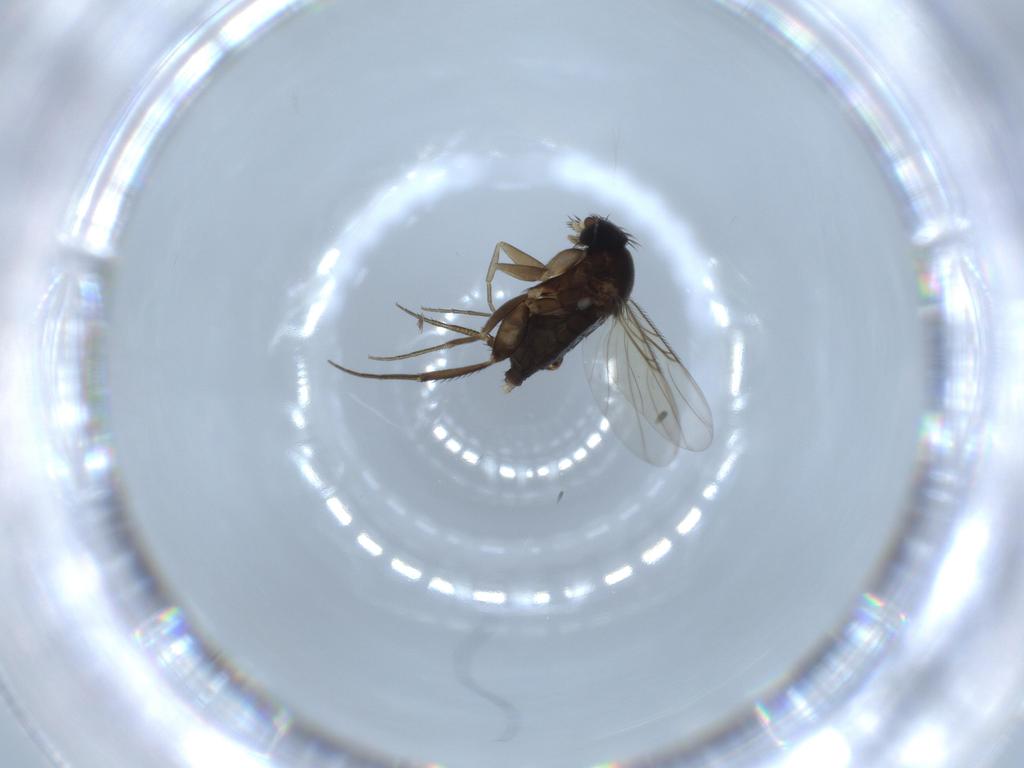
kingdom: Animalia
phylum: Arthropoda
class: Insecta
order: Diptera
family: Phoridae
